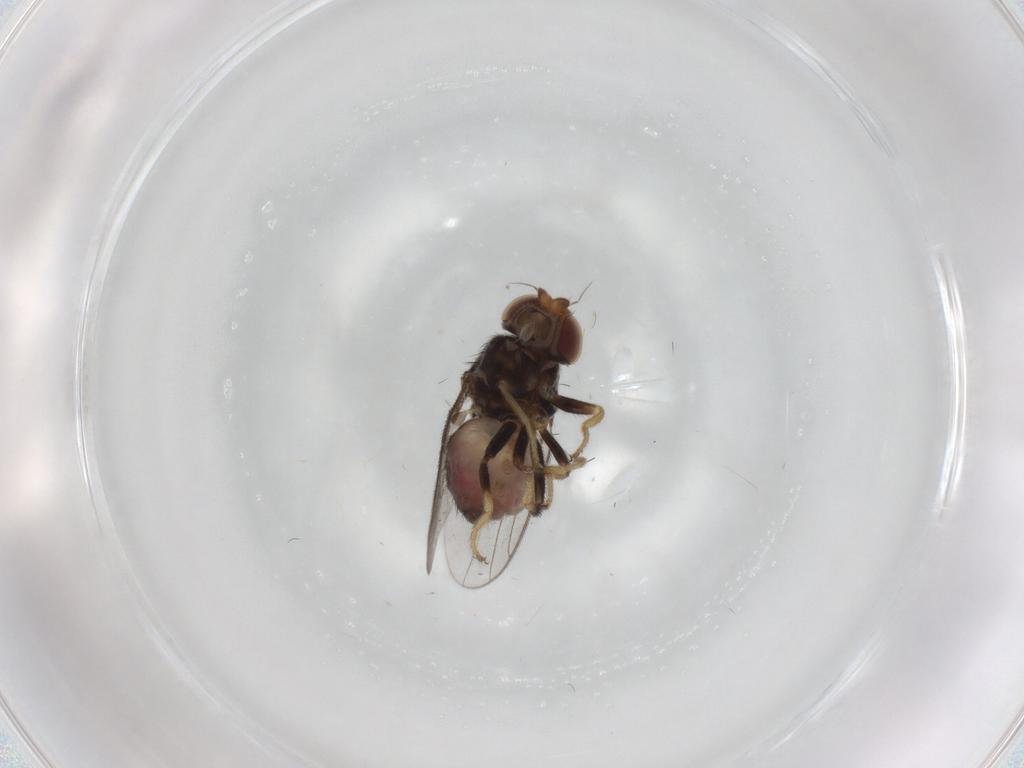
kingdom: Animalia
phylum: Arthropoda
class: Insecta
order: Diptera
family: Chloropidae
